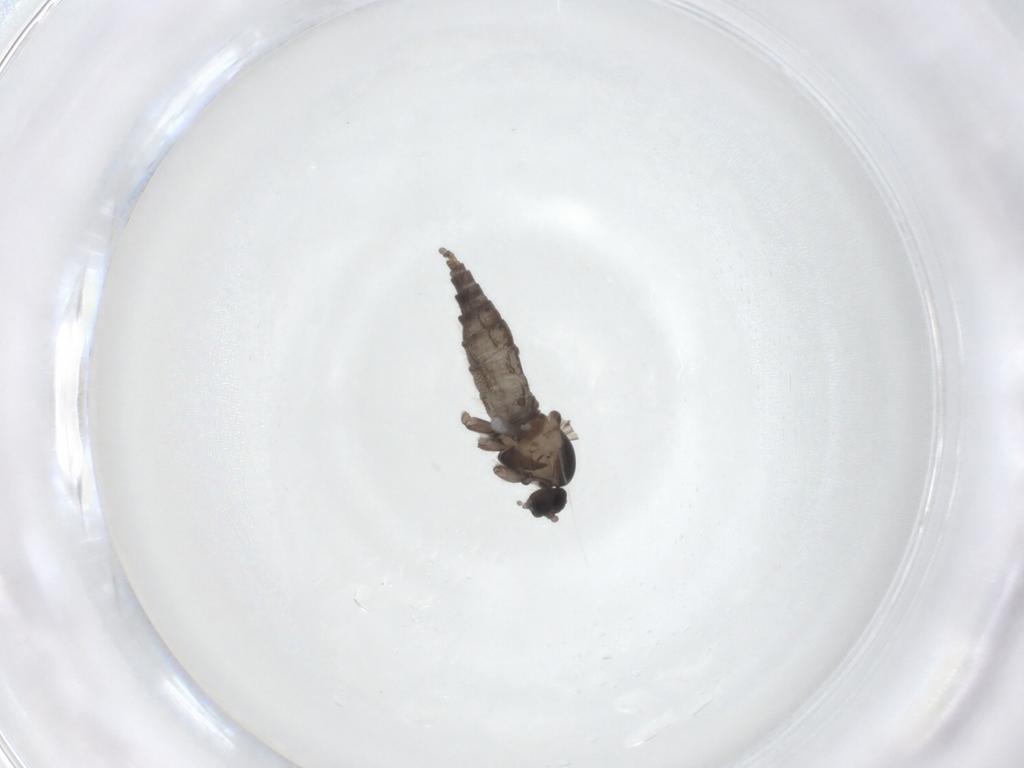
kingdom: Animalia
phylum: Arthropoda
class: Insecta
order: Diptera
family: Cecidomyiidae
